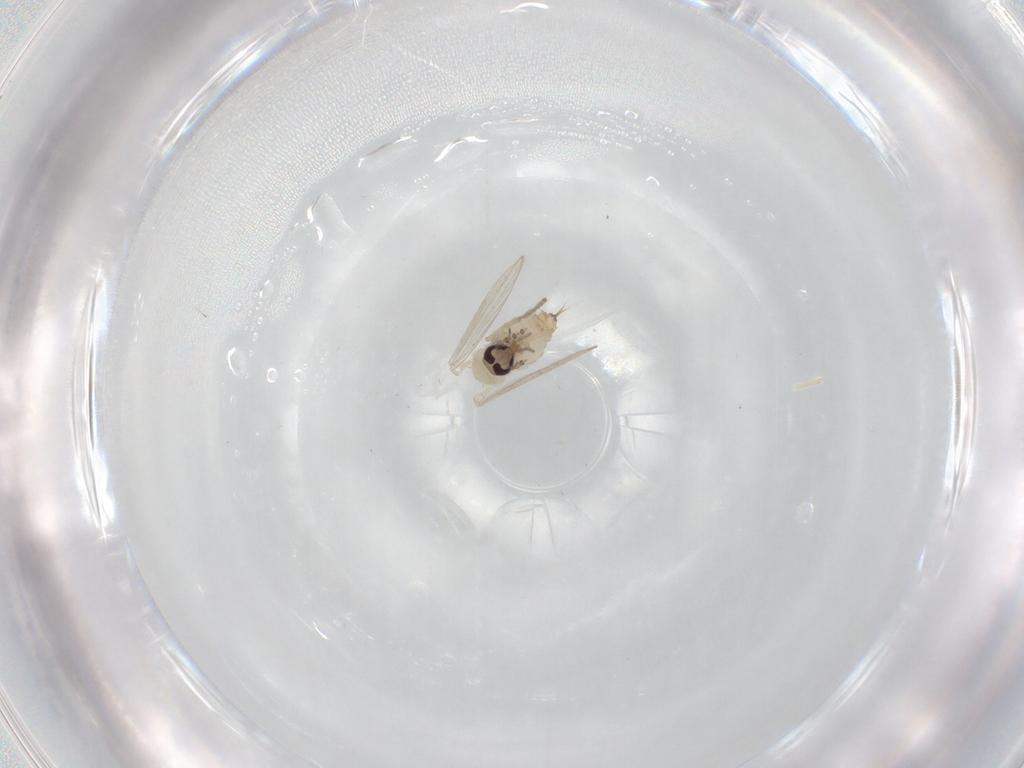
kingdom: Animalia
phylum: Arthropoda
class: Insecta
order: Diptera
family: Psychodidae
